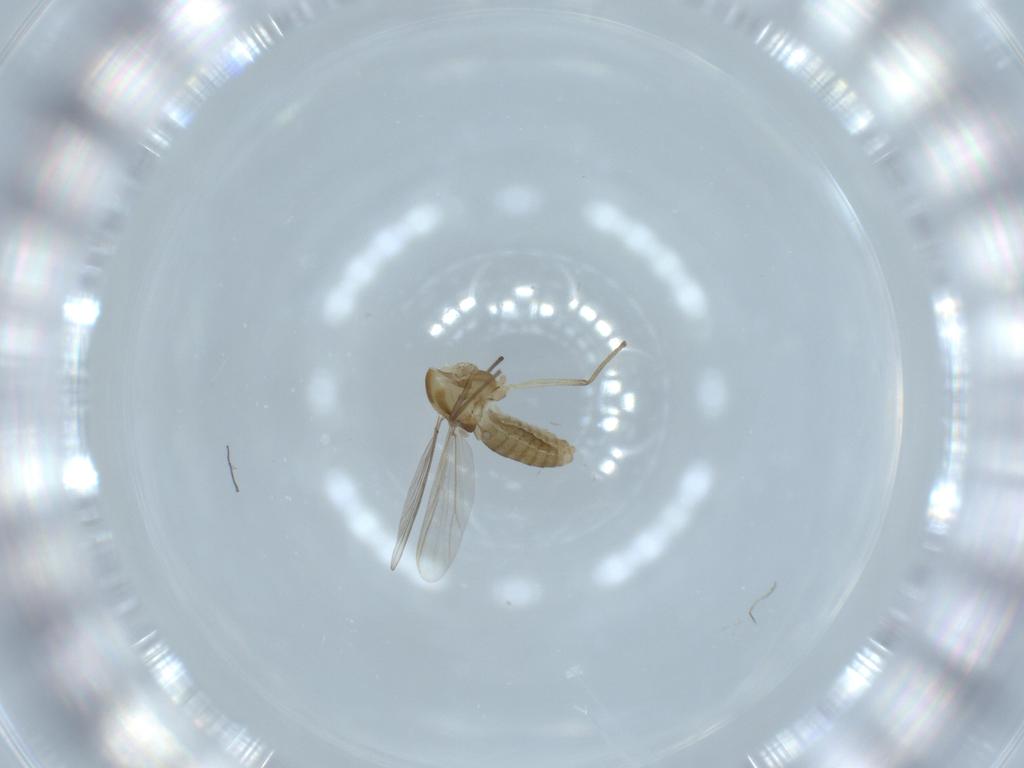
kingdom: Animalia
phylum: Arthropoda
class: Insecta
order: Diptera
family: Chironomidae
